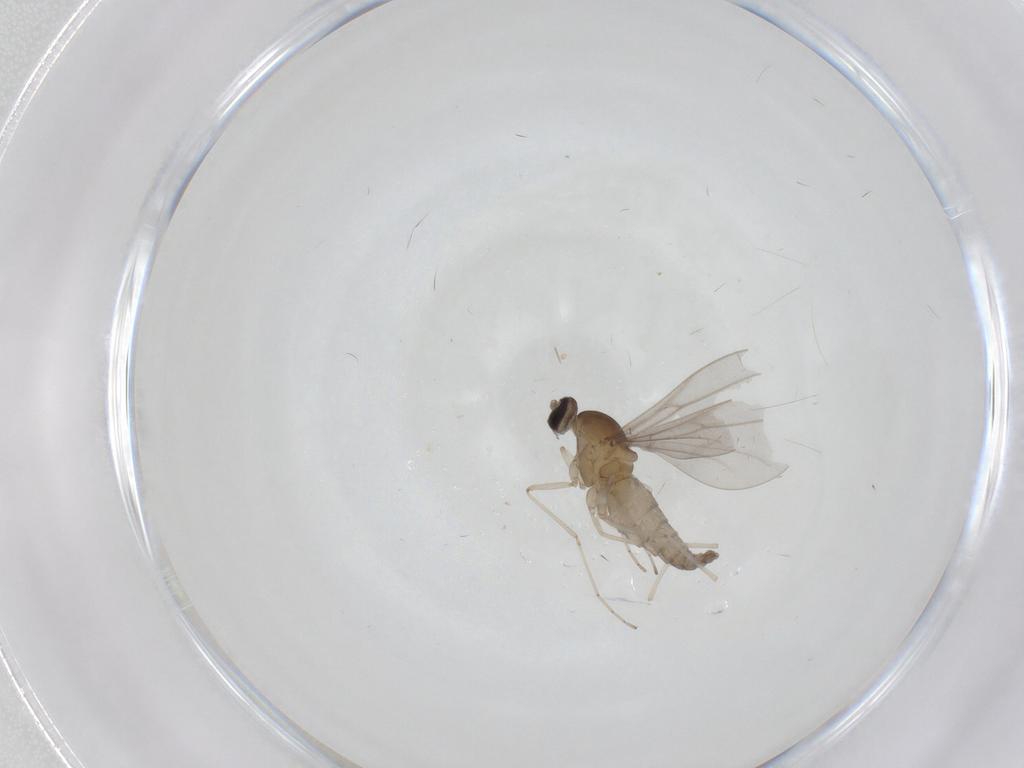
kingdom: Animalia
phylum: Arthropoda
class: Insecta
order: Diptera
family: Cecidomyiidae
